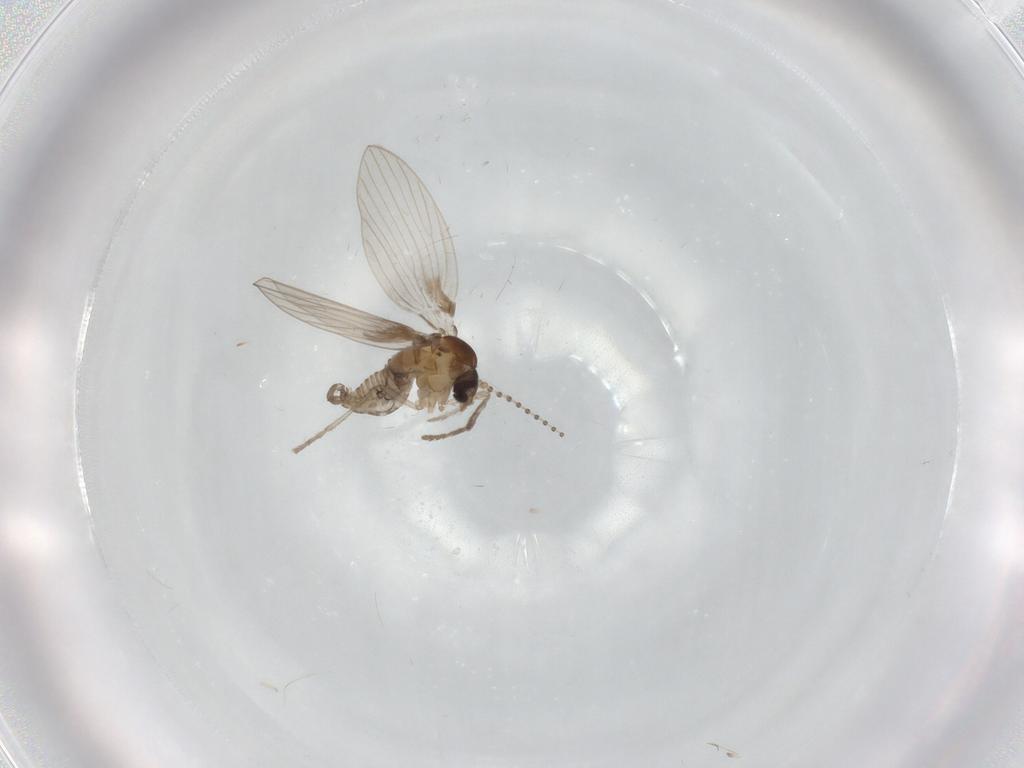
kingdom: Animalia
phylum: Arthropoda
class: Insecta
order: Diptera
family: Psychodidae
